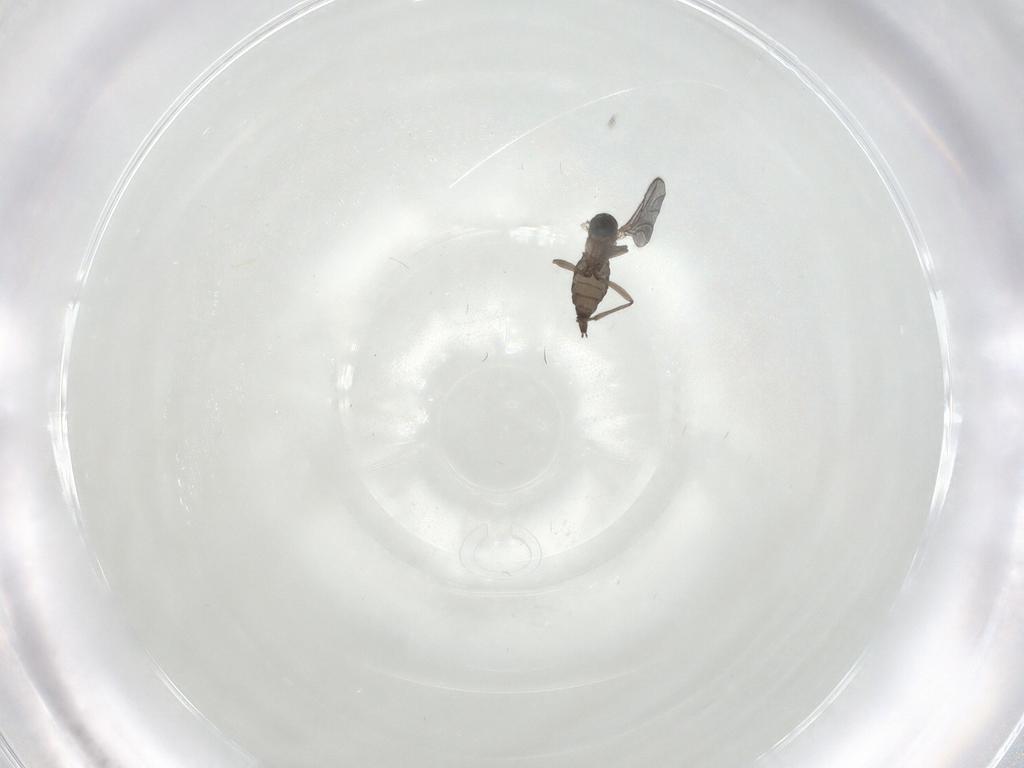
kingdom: Animalia
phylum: Arthropoda
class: Insecta
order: Diptera
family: Sciaridae
